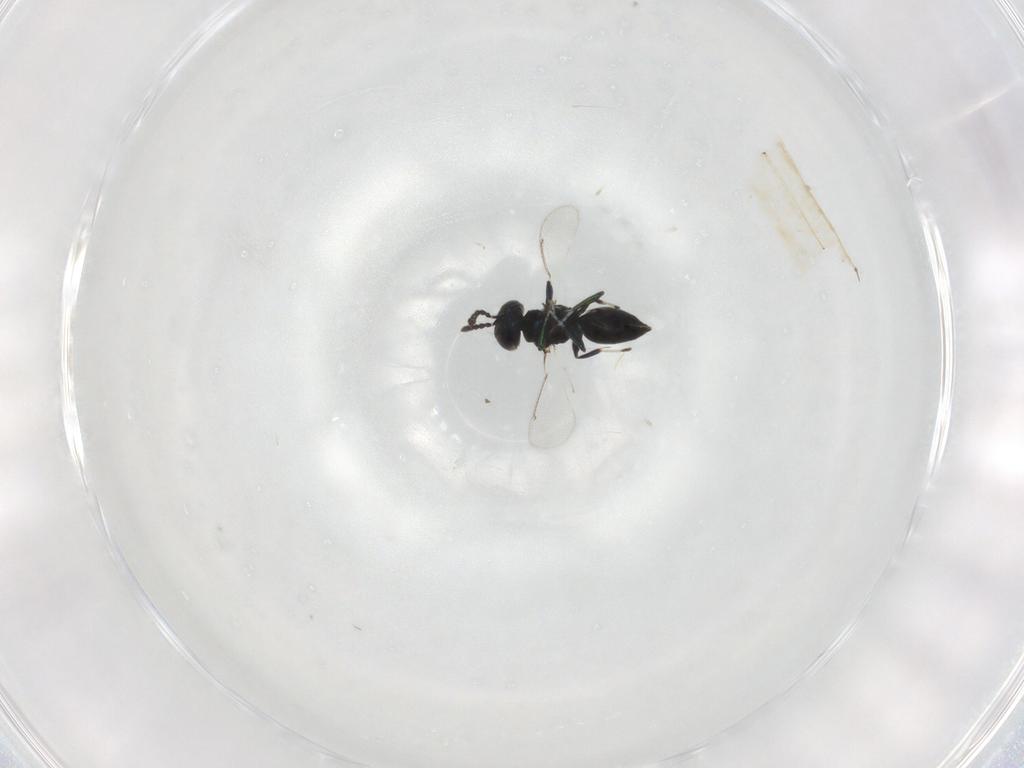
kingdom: Animalia
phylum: Arthropoda
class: Insecta
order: Hymenoptera
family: Eulophidae
